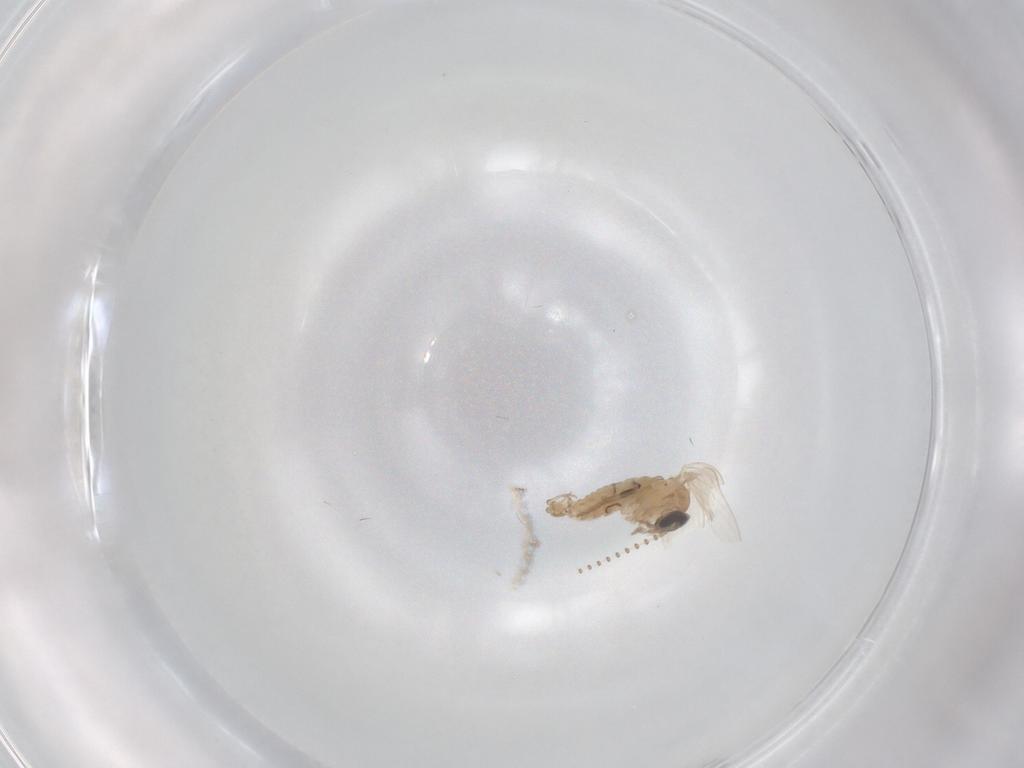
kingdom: Animalia
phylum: Arthropoda
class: Insecta
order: Diptera
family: Psychodidae
